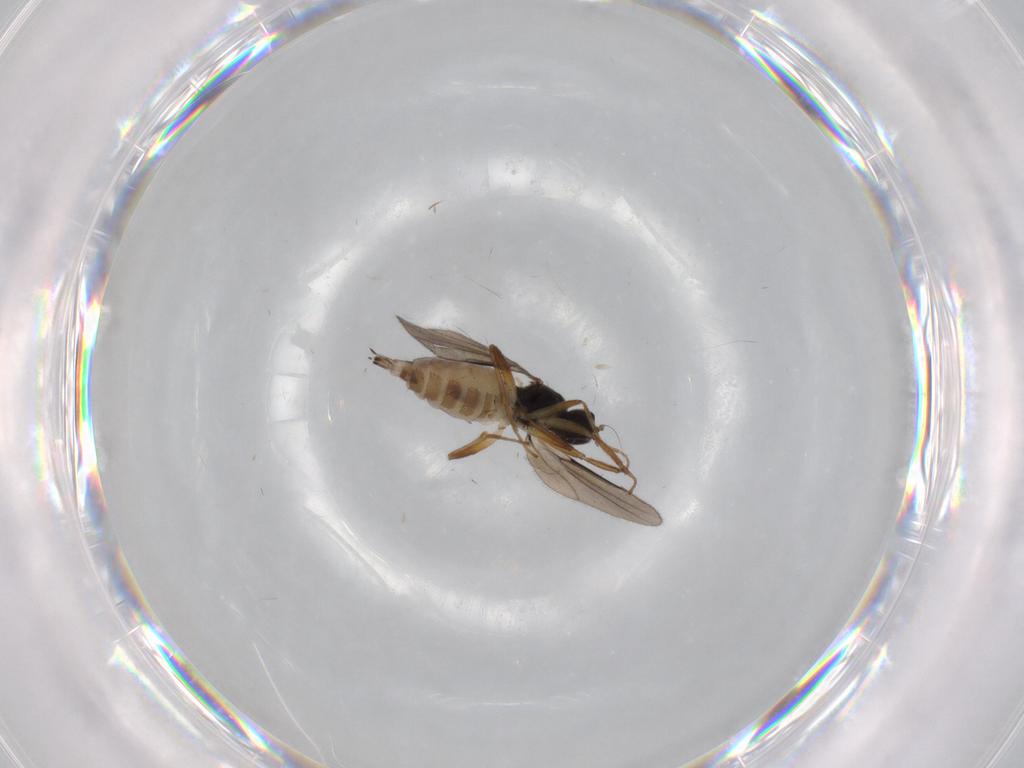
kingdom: Animalia
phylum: Arthropoda
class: Insecta
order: Diptera
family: Hybotidae
